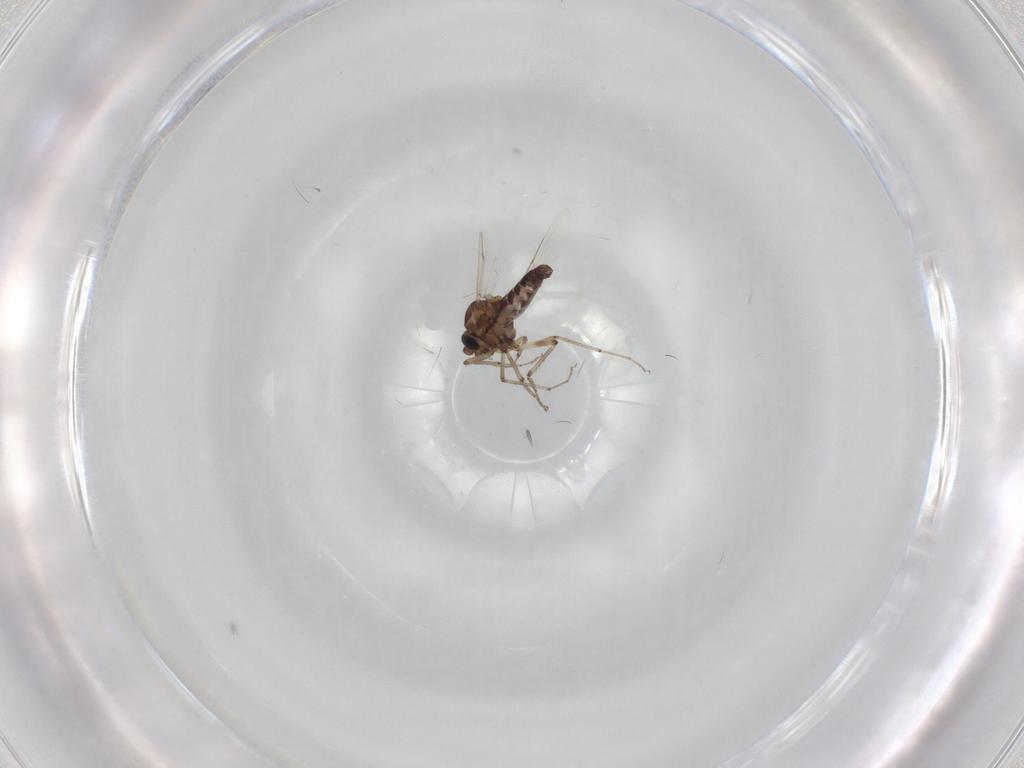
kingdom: Animalia
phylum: Arthropoda
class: Insecta
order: Diptera
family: Ceratopogonidae
